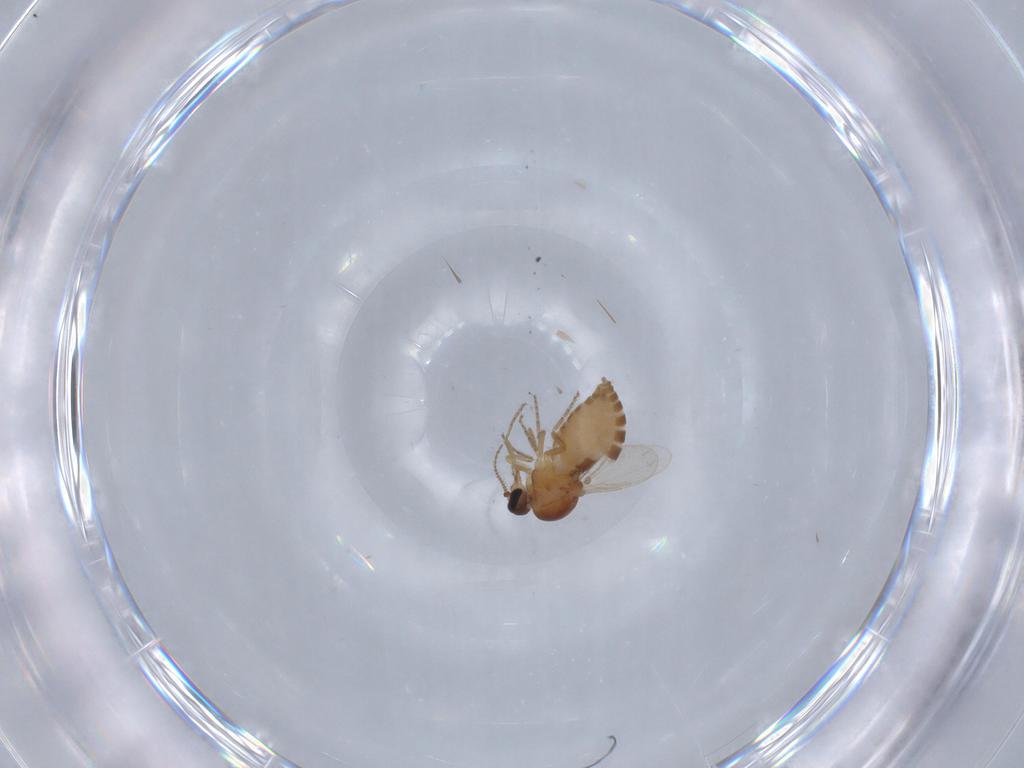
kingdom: Animalia
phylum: Arthropoda
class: Insecta
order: Diptera
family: Ceratopogonidae
